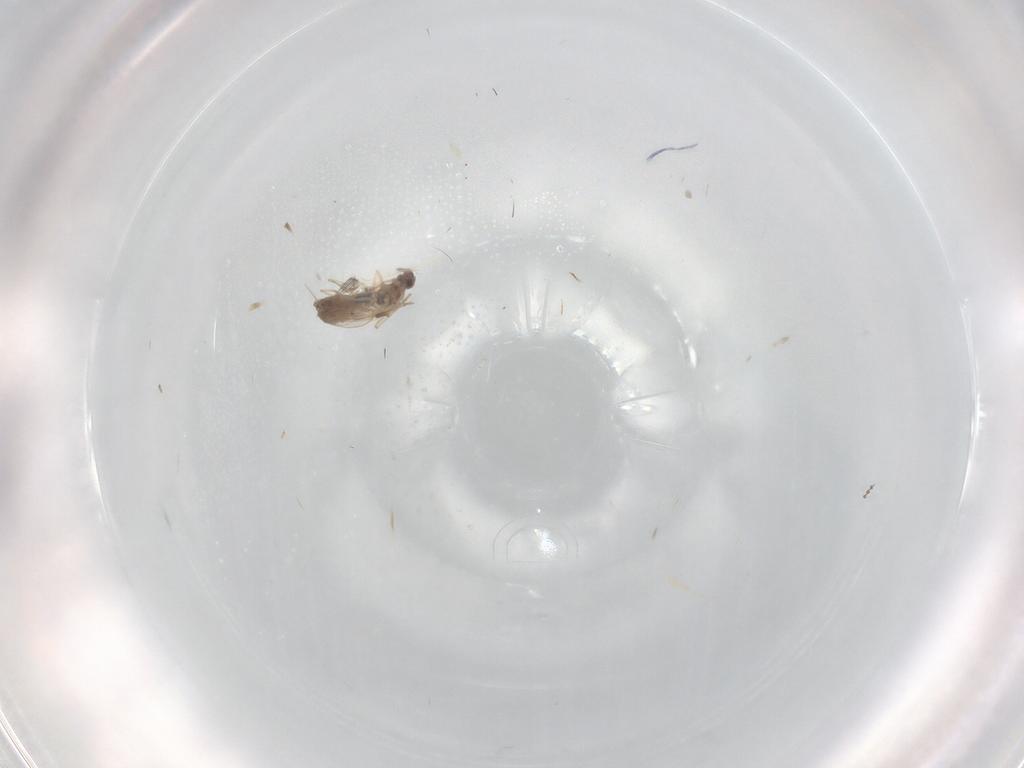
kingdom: Animalia
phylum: Arthropoda
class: Insecta
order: Diptera
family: Cecidomyiidae
